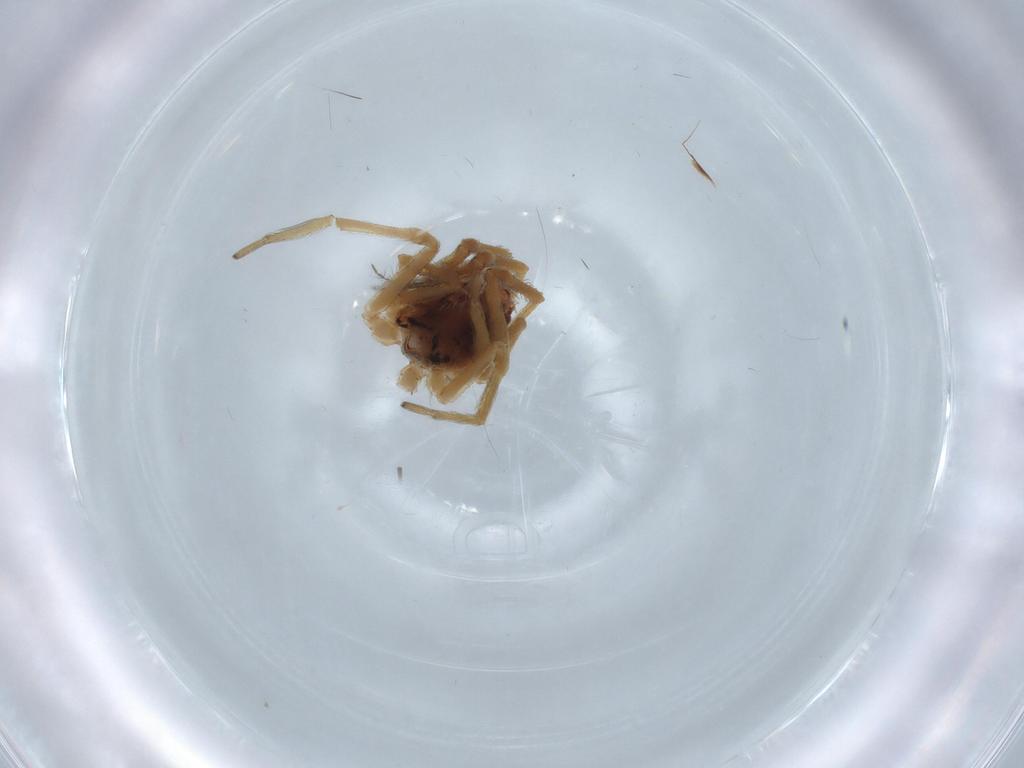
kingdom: Animalia
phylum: Arthropoda
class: Arachnida
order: Araneae
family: Dictynidae
